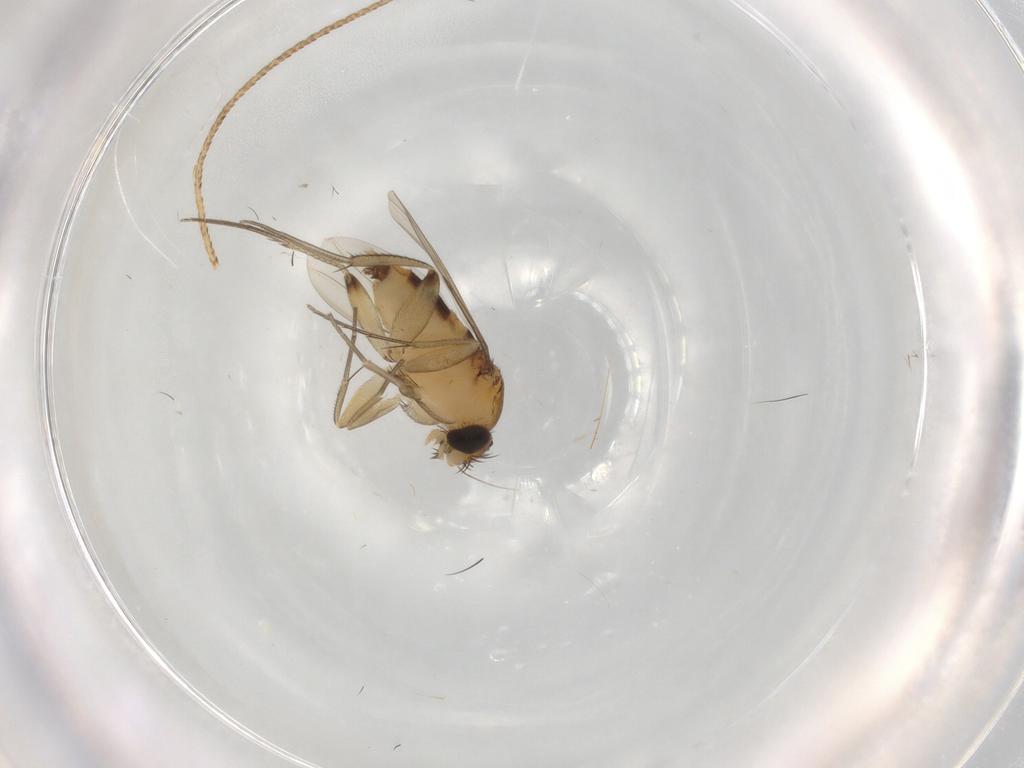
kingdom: Animalia
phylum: Arthropoda
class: Insecta
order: Diptera
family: Phoridae
